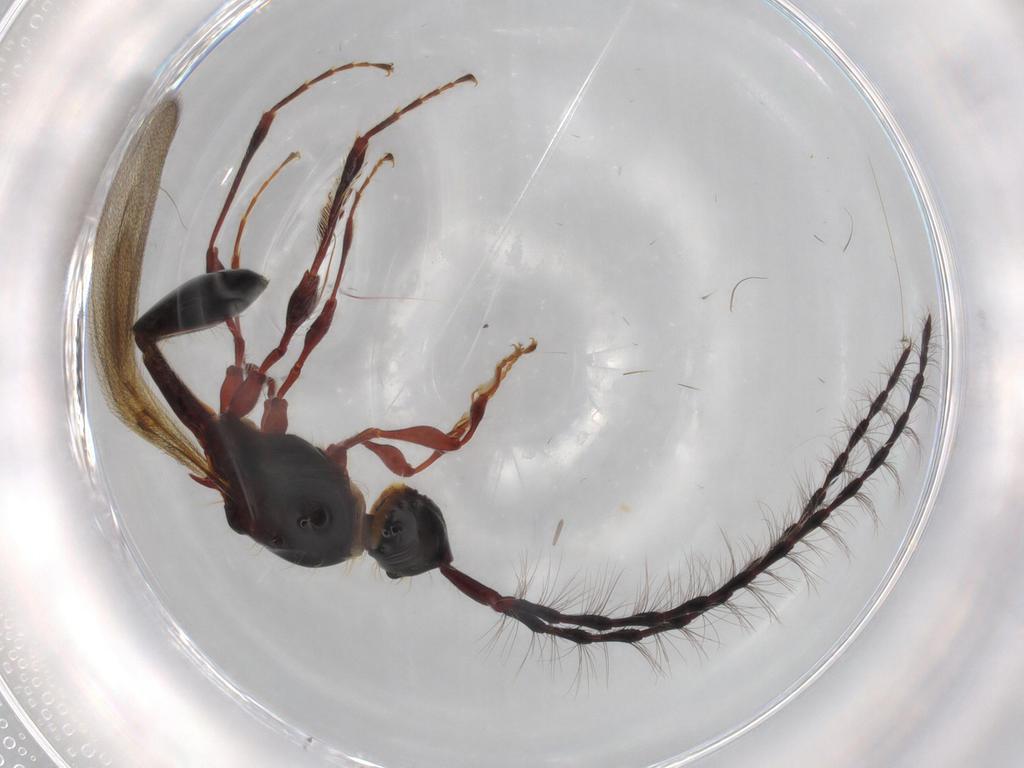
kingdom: Animalia
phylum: Arthropoda
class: Insecta
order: Hymenoptera
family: Diapriidae
